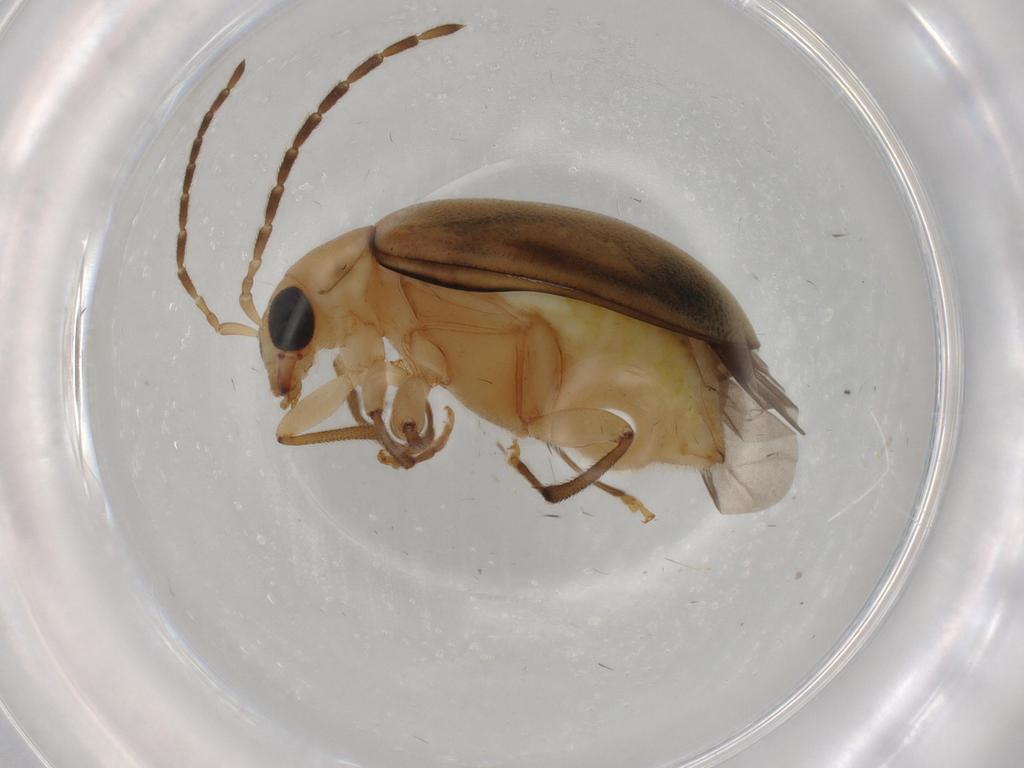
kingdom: Animalia
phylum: Arthropoda
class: Insecta
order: Coleoptera
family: Chrysomelidae
